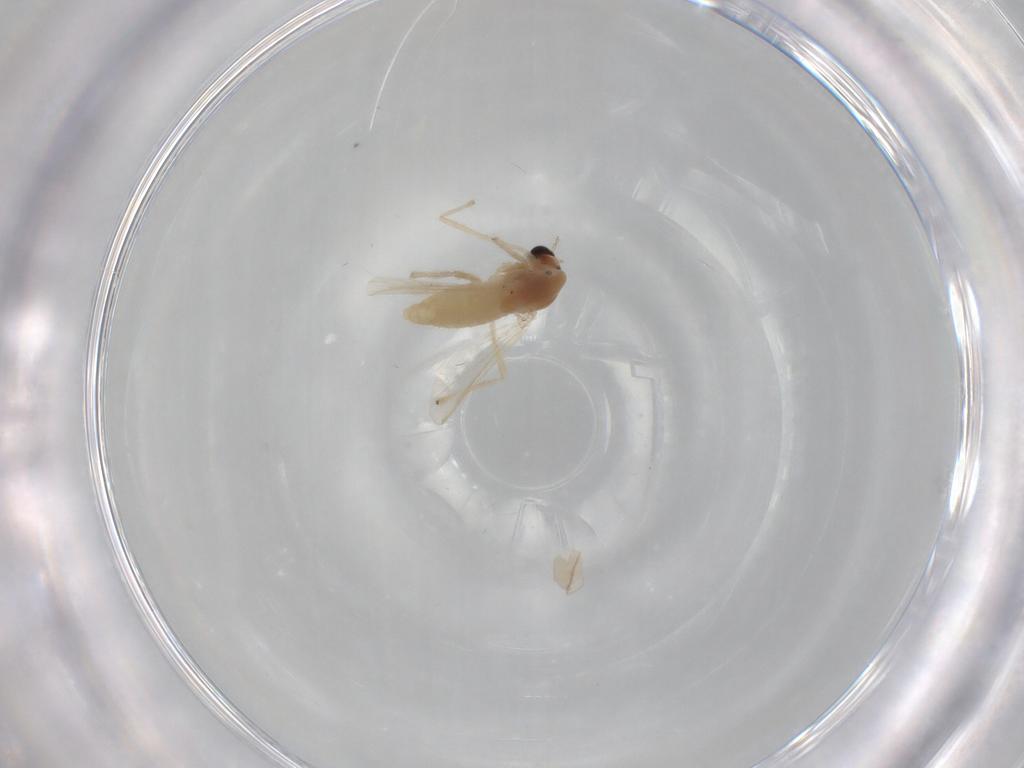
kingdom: Animalia
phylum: Arthropoda
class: Insecta
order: Diptera
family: Chironomidae
